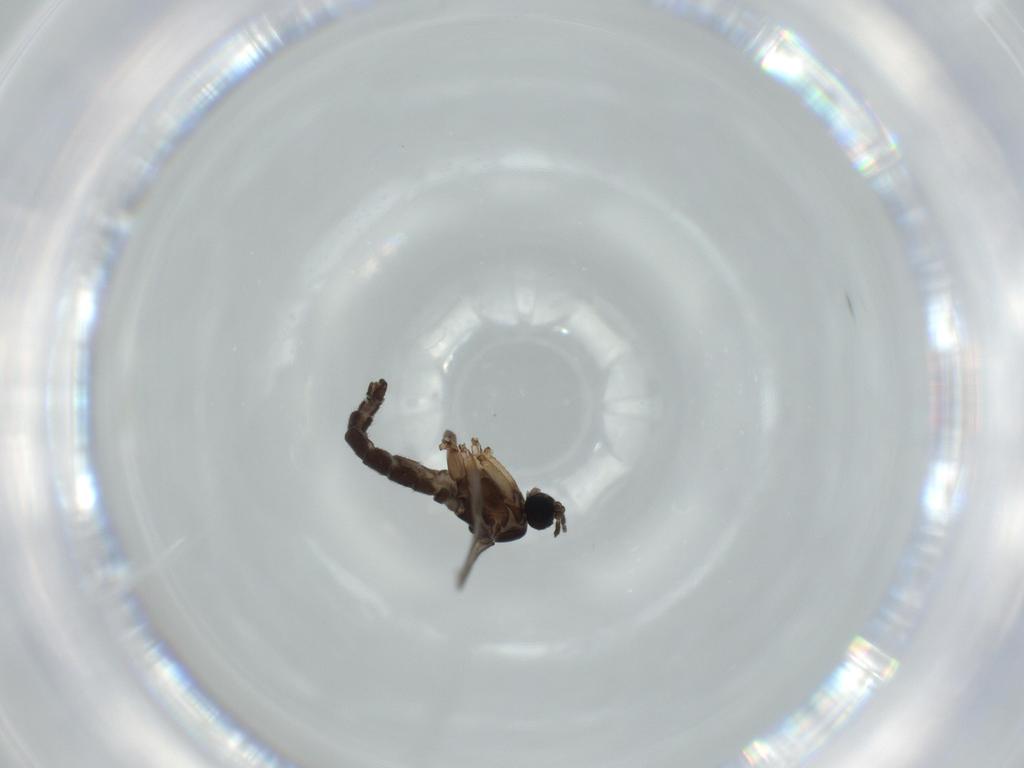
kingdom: Animalia
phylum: Arthropoda
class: Insecta
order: Diptera
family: Sciaridae
